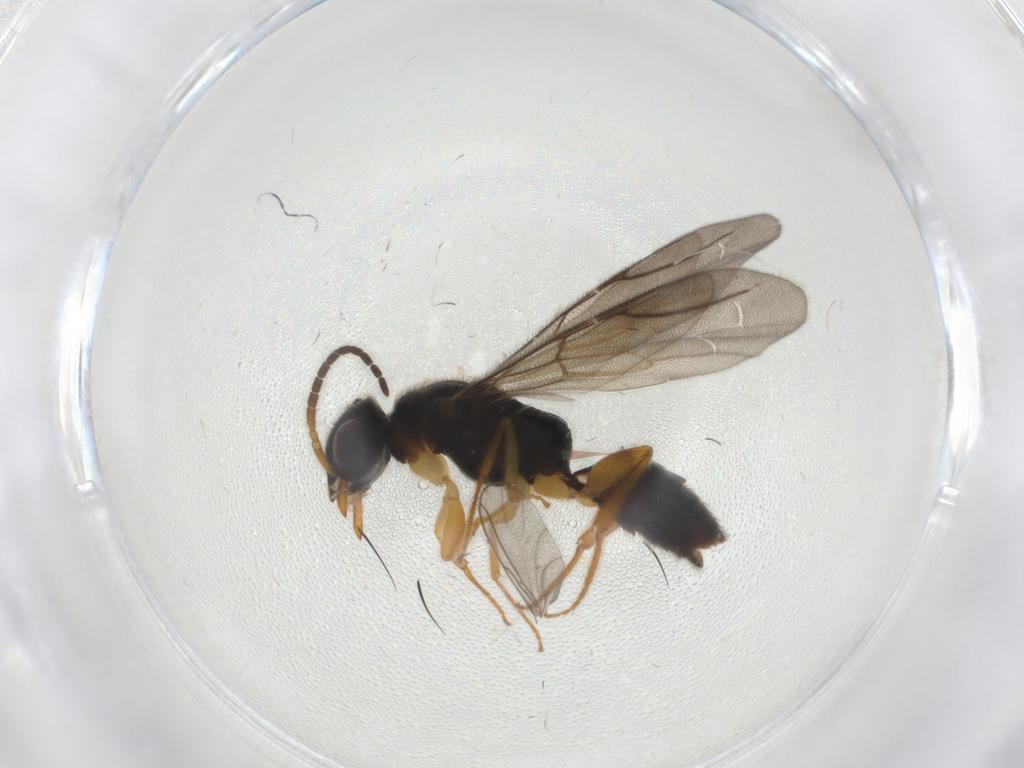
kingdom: Animalia
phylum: Arthropoda
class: Insecta
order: Hymenoptera
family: Bethylidae
